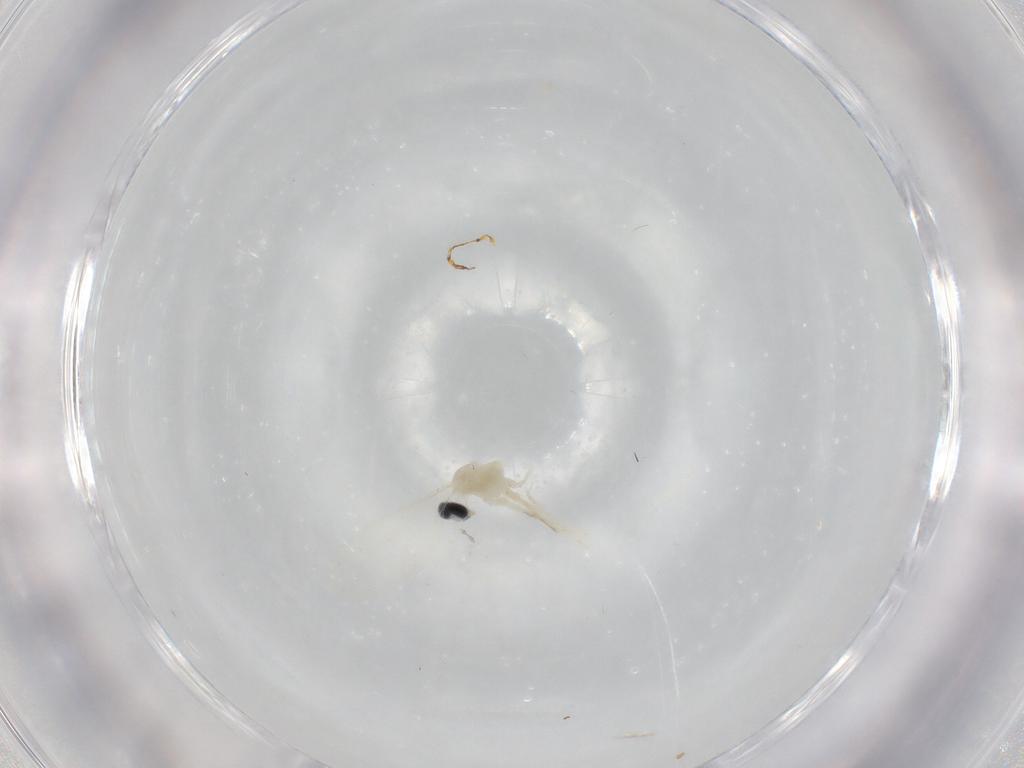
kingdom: Animalia
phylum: Arthropoda
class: Insecta
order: Diptera
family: Cecidomyiidae
